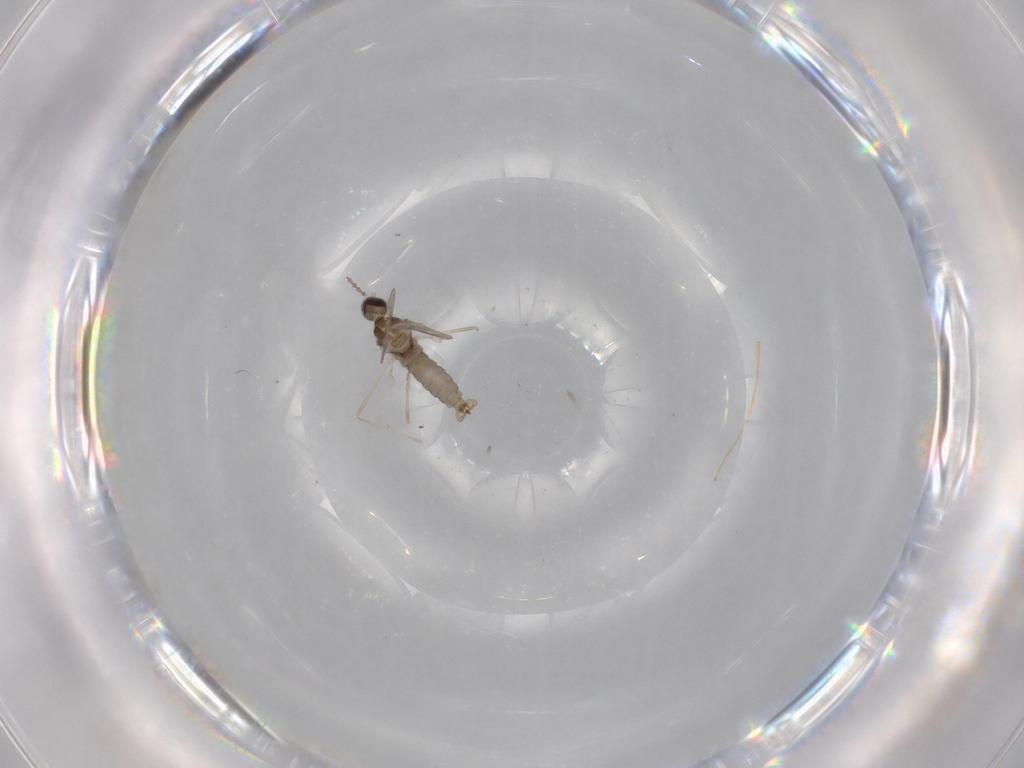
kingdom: Animalia
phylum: Arthropoda
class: Insecta
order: Diptera
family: Cecidomyiidae
